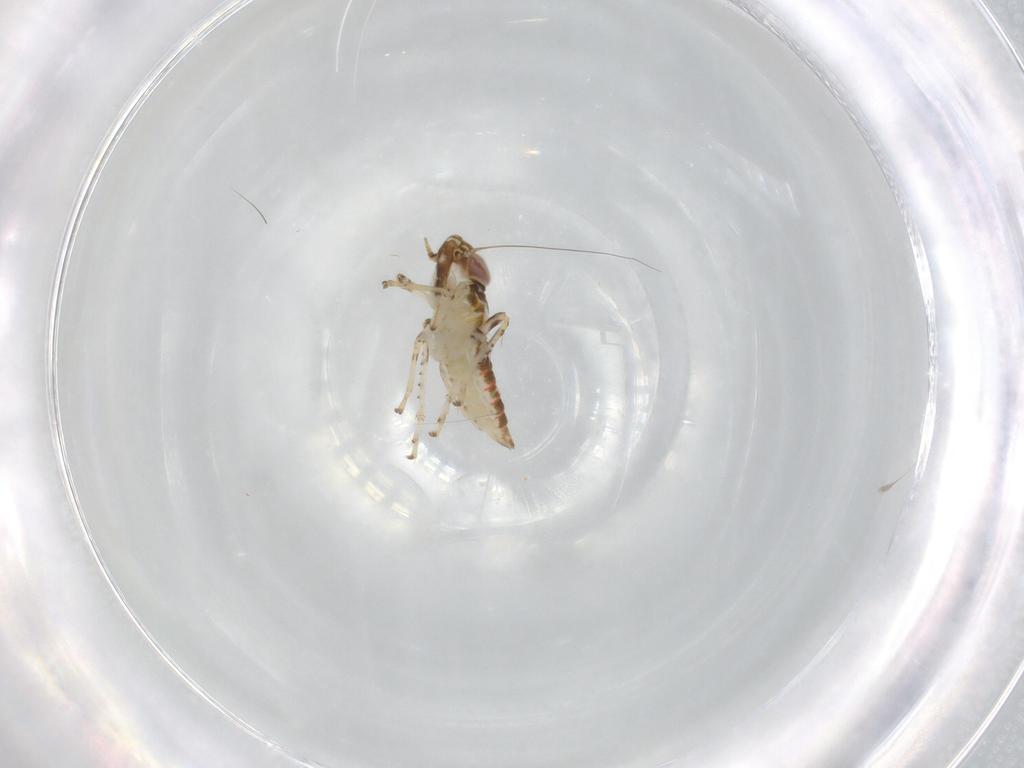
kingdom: Animalia
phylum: Arthropoda
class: Insecta
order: Hemiptera
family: Cicadellidae
